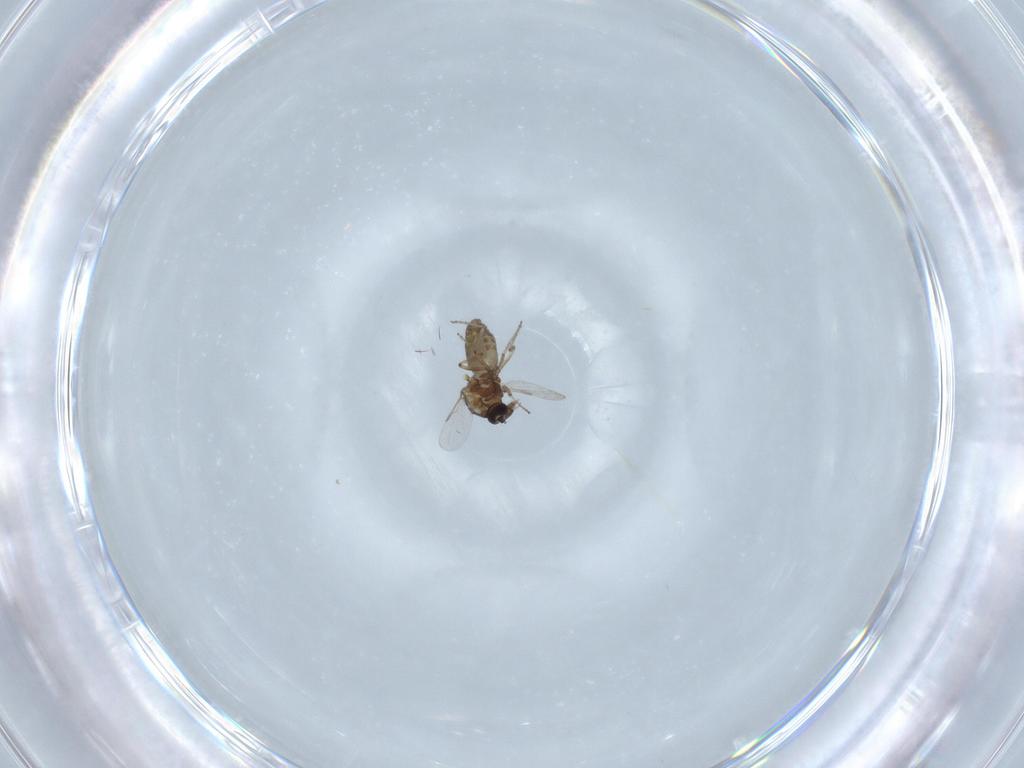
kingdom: Animalia
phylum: Arthropoda
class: Insecta
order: Diptera
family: Ceratopogonidae
